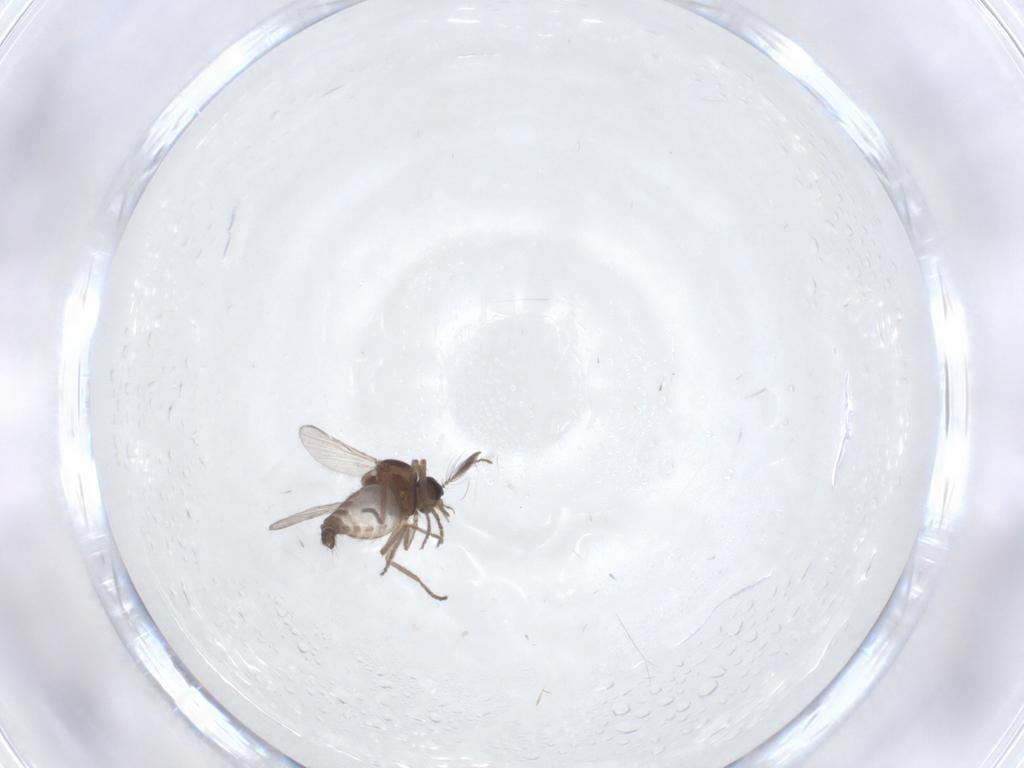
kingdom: Animalia
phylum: Arthropoda
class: Insecta
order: Diptera
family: Ceratopogonidae
